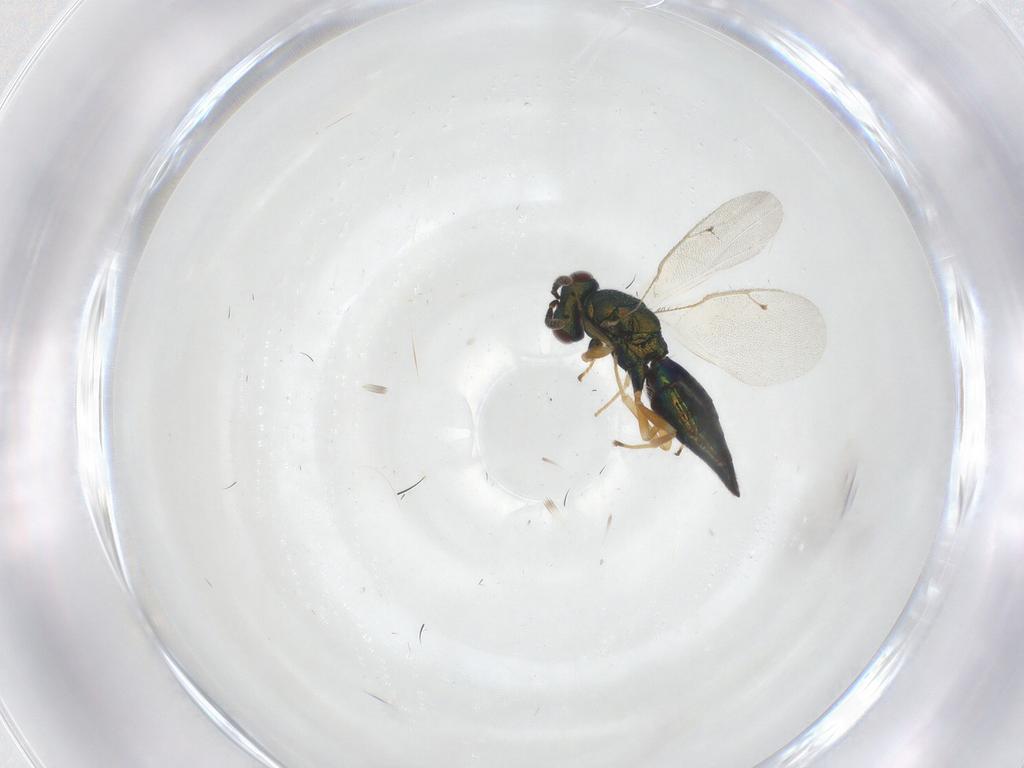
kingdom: Animalia
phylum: Arthropoda
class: Insecta
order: Hymenoptera
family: Pteromalidae
